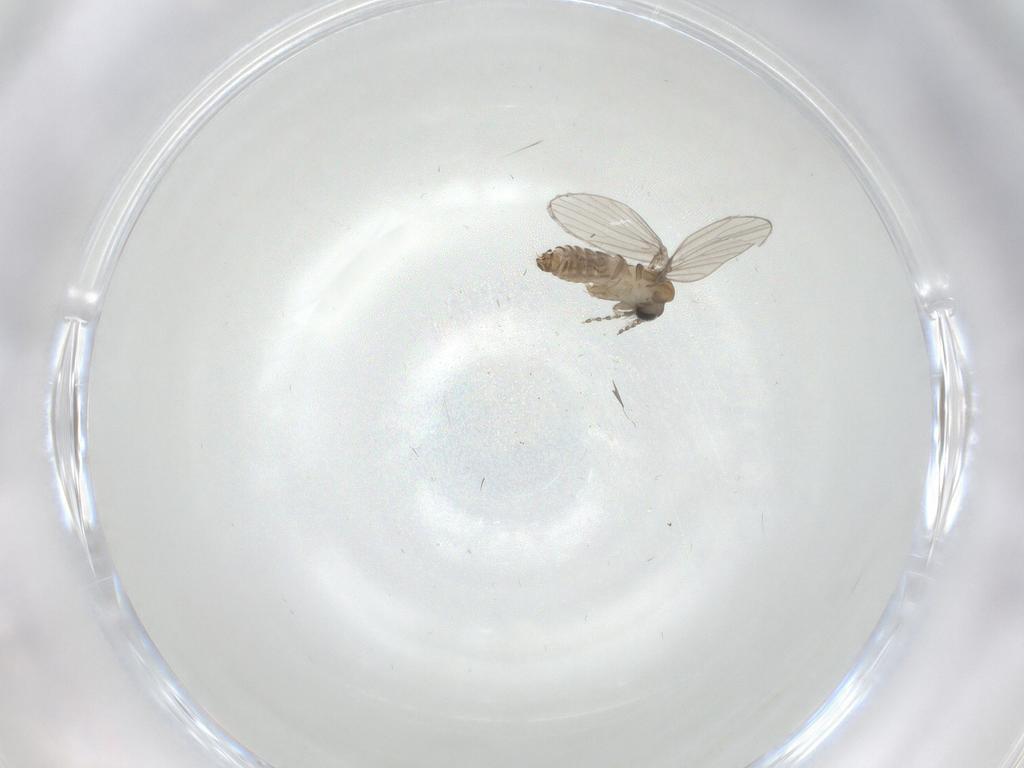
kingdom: Animalia
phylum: Arthropoda
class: Insecta
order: Diptera
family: Psychodidae
